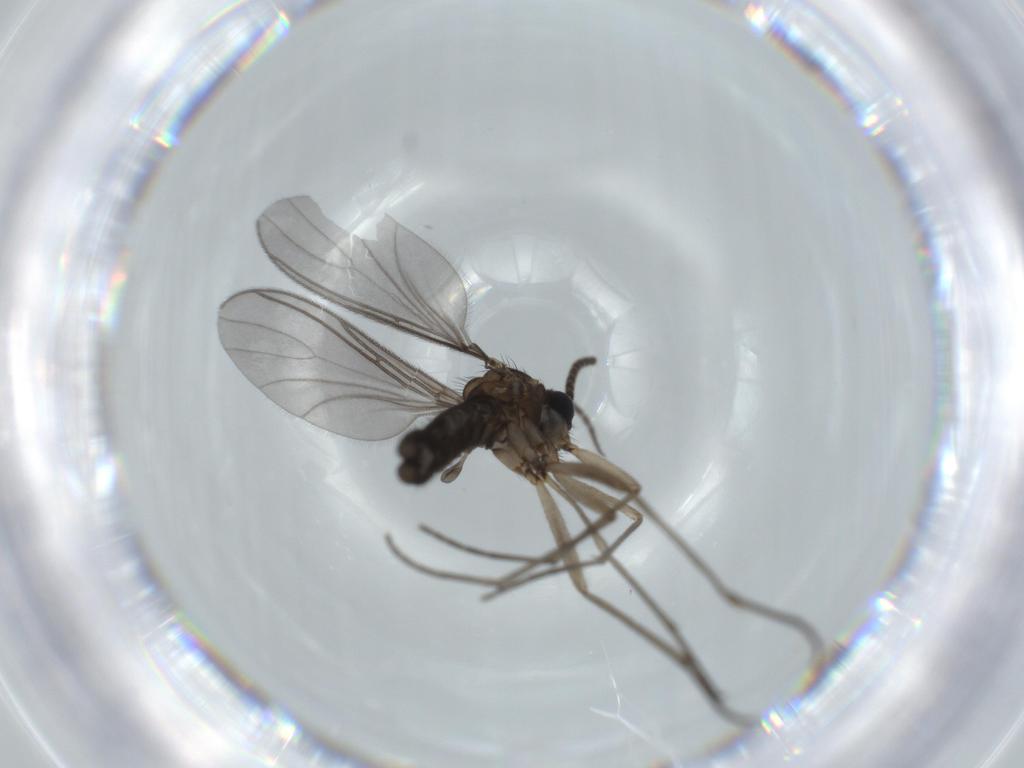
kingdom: Animalia
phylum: Arthropoda
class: Insecta
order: Diptera
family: Sciaridae
